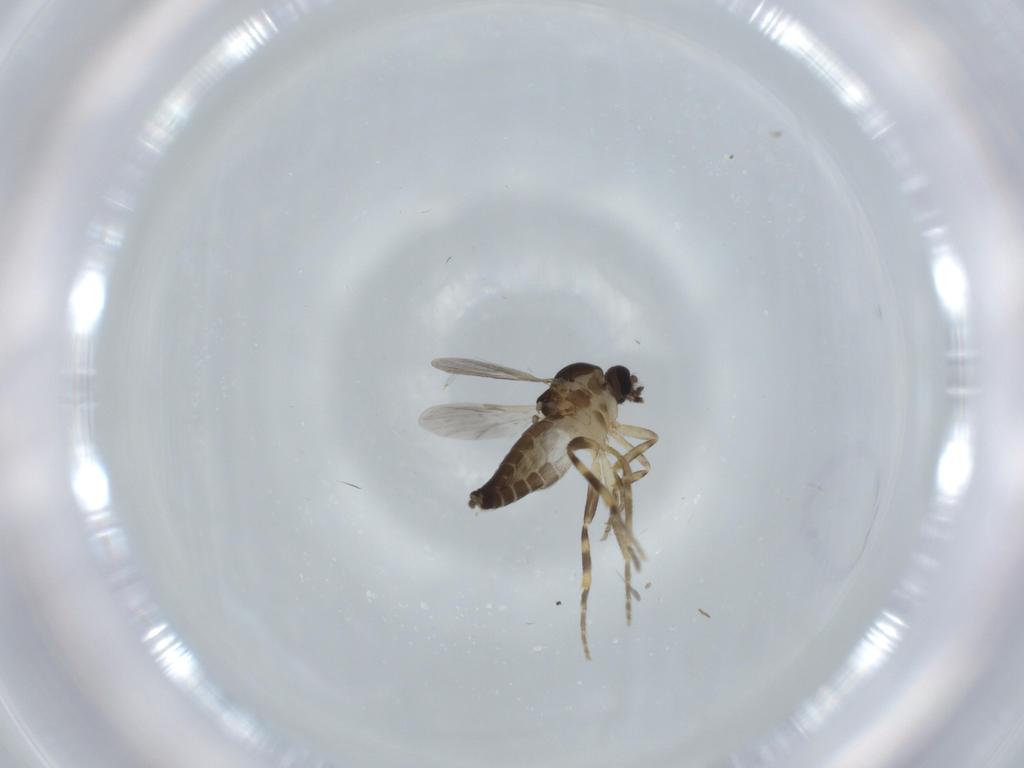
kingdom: Animalia
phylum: Arthropoda
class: Insecta
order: Diptera
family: Ceratopogonidae
